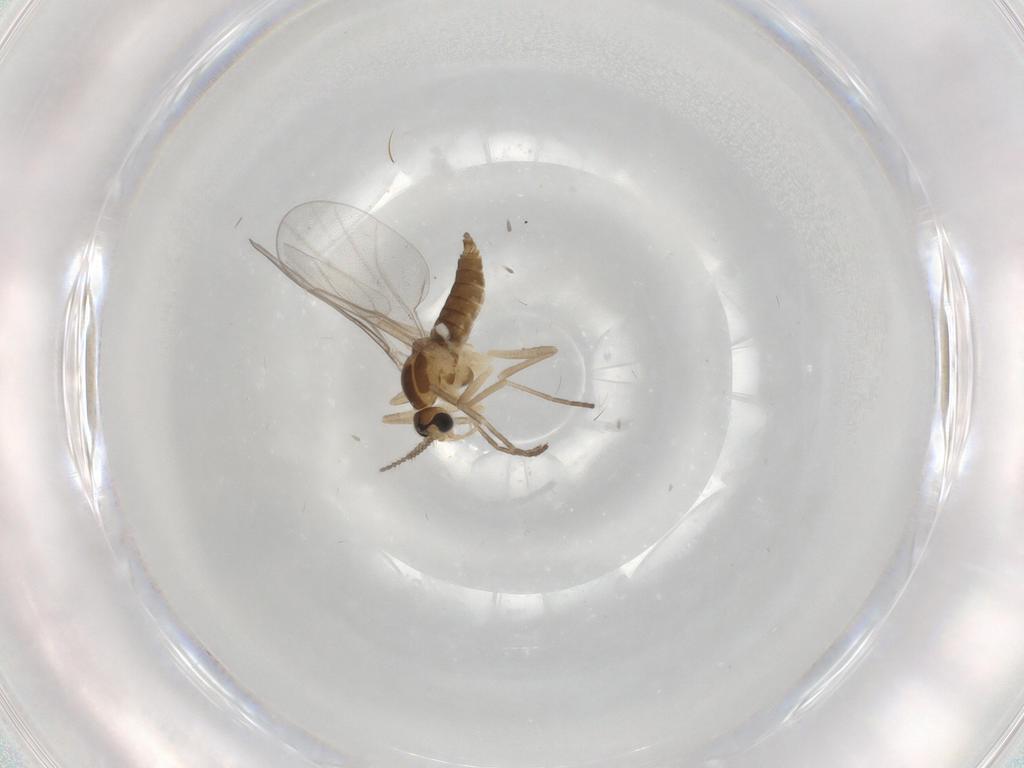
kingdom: Animalia
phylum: Arthropoda
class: Insecta
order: Diptera
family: Cecidomyiidae
